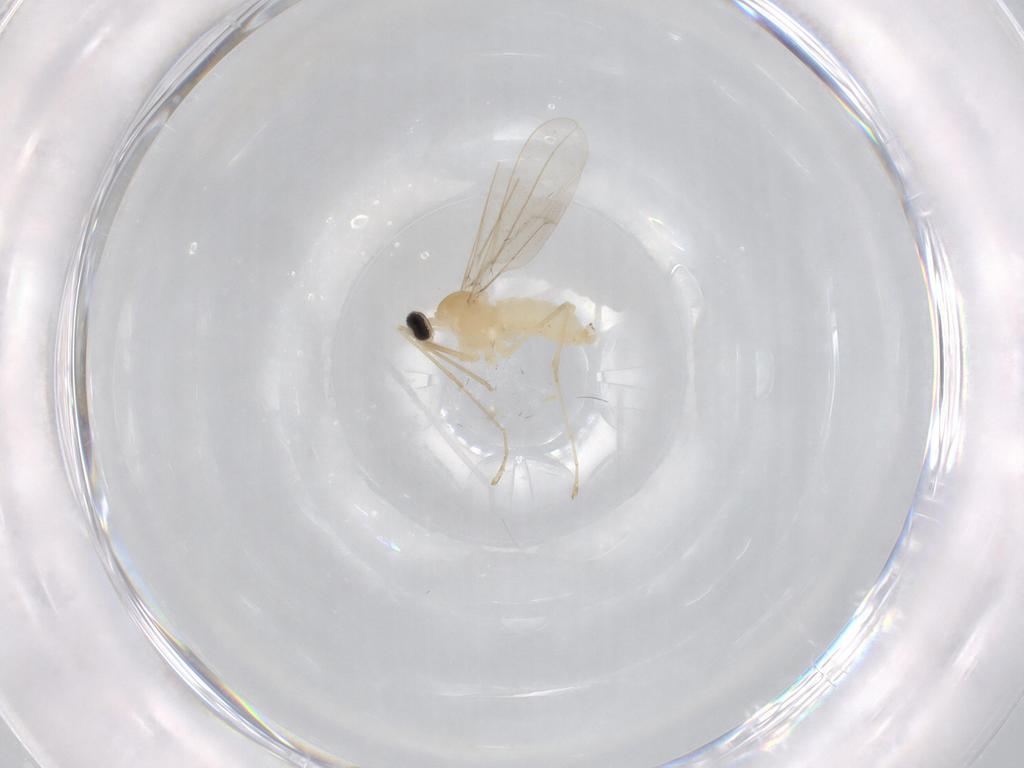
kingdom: Animalia
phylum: Arthropoda
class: Insecta
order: Diptera
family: Cecidomyiidae
